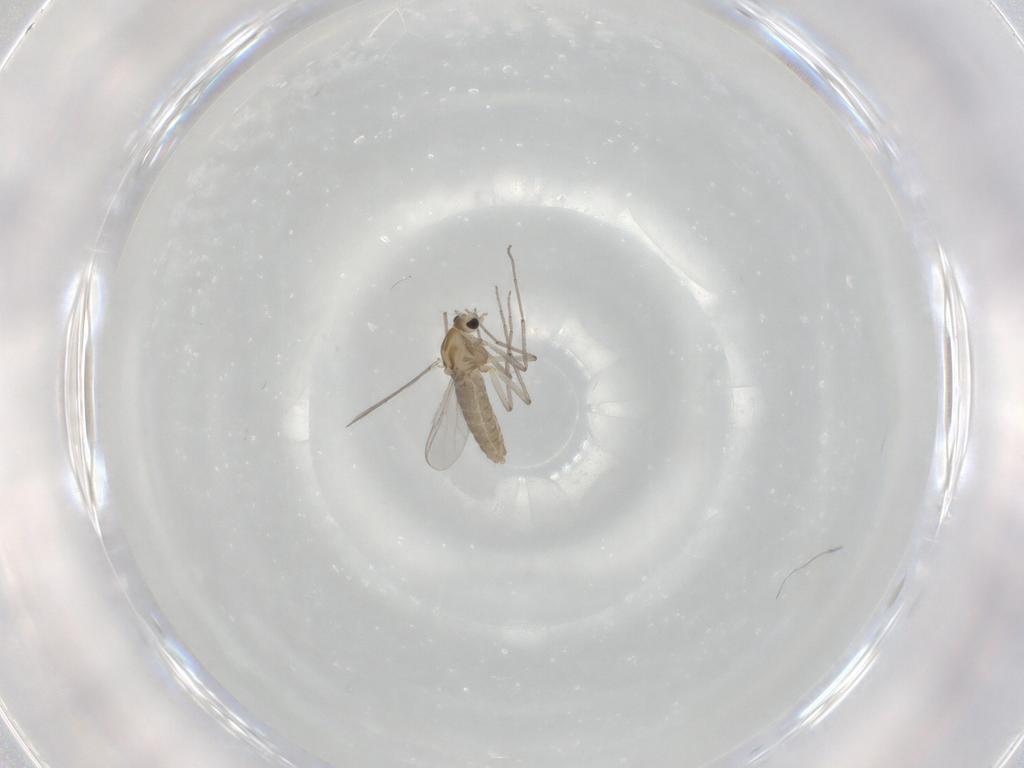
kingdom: Animalia
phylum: Arthropoda
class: Insecta
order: Diptera
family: Chironomidae
